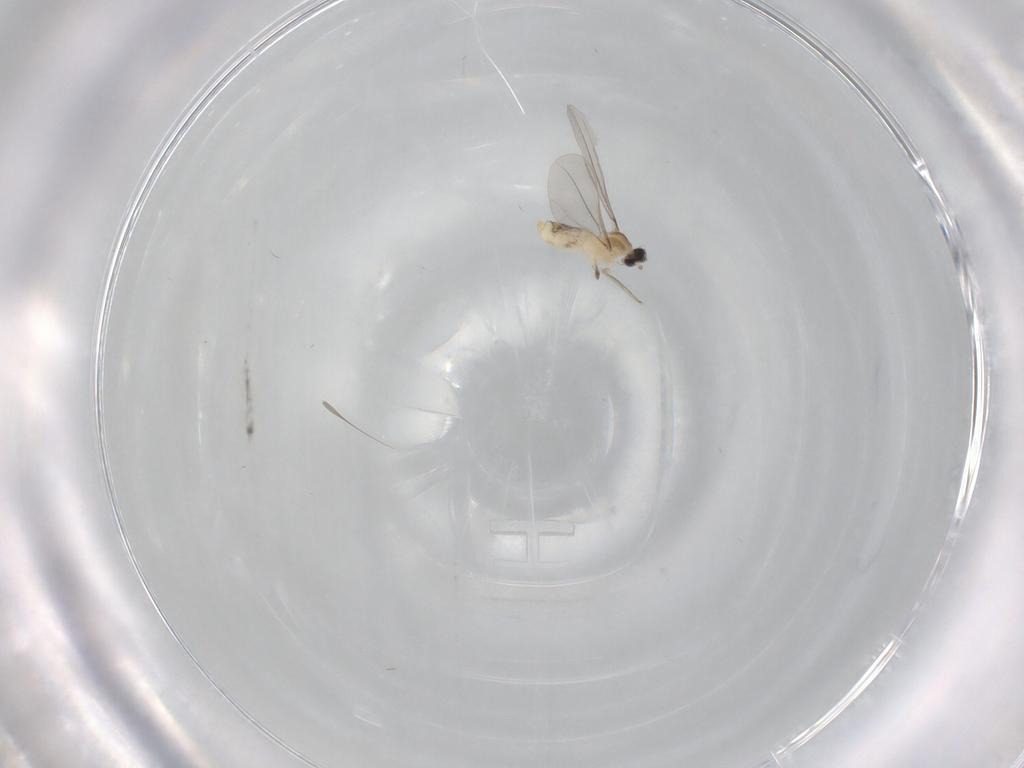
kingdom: Animalia
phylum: Arthropoda
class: Insecta
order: Diptera
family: Cecidomyiidae
